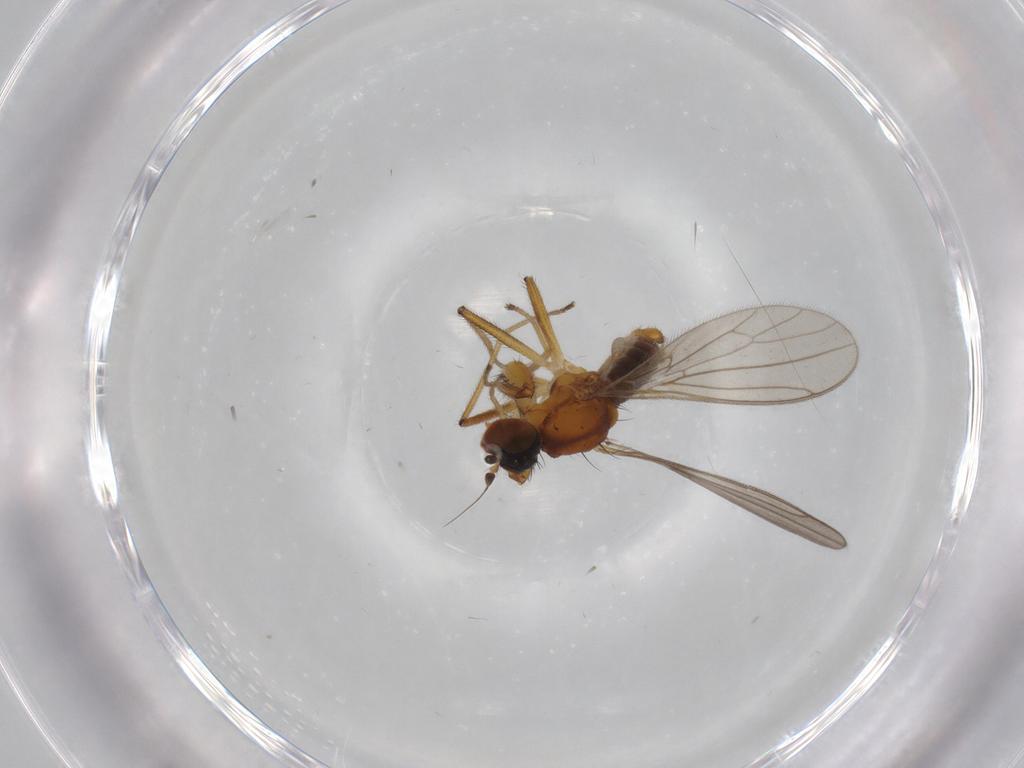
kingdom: Animalia
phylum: Arthropoda
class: Insecta
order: Diptera
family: Empididae
